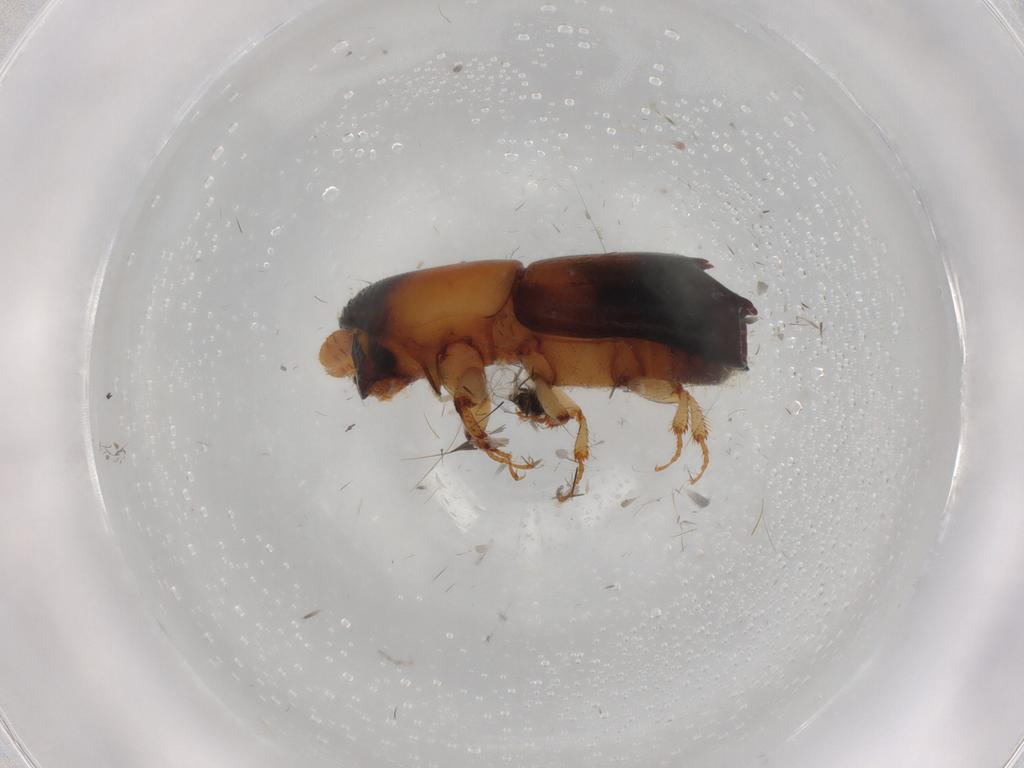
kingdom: Animalia
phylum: Arthropoda
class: Insecta
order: Hymenoptera
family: Trichogrammatidae
